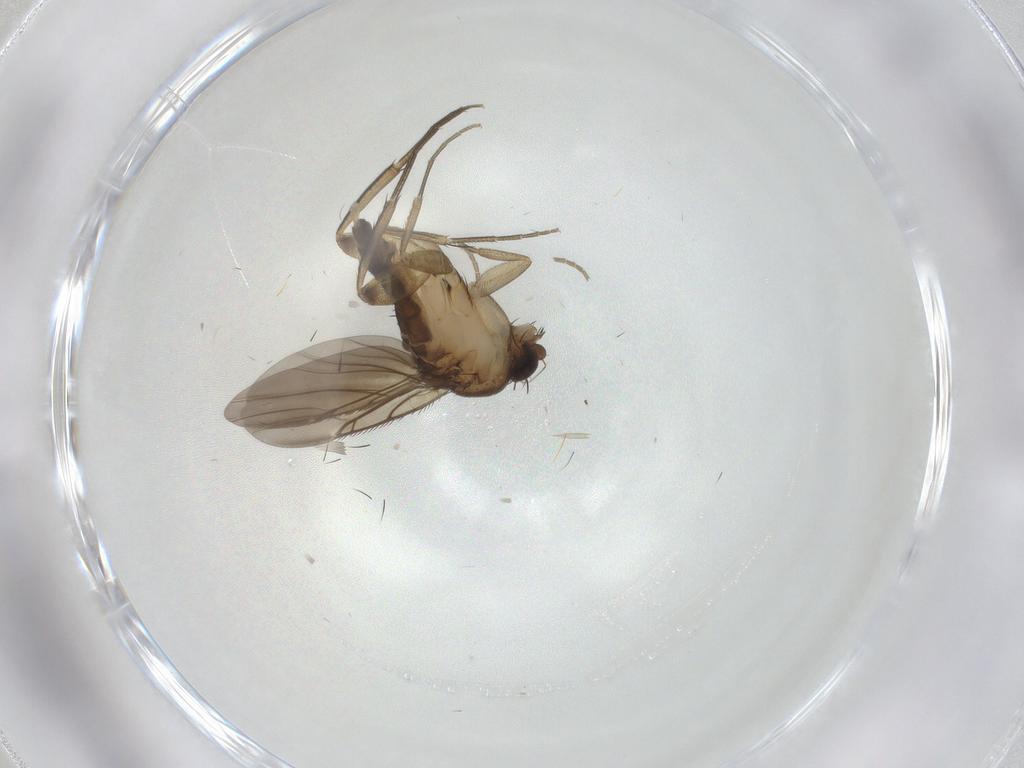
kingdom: Animalia
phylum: Arthropoda
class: Insecta
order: Diptera
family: Phoridae
